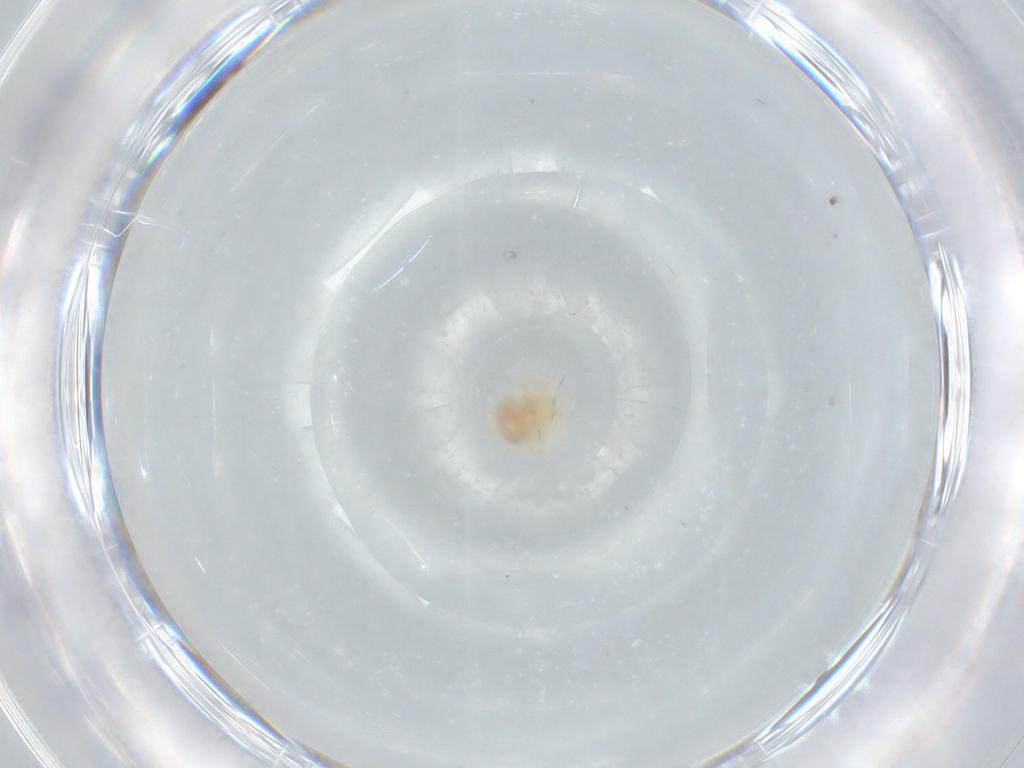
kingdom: Animalia
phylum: Arthropoda
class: Arachnida
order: Trombidiformes
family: Anystidae
